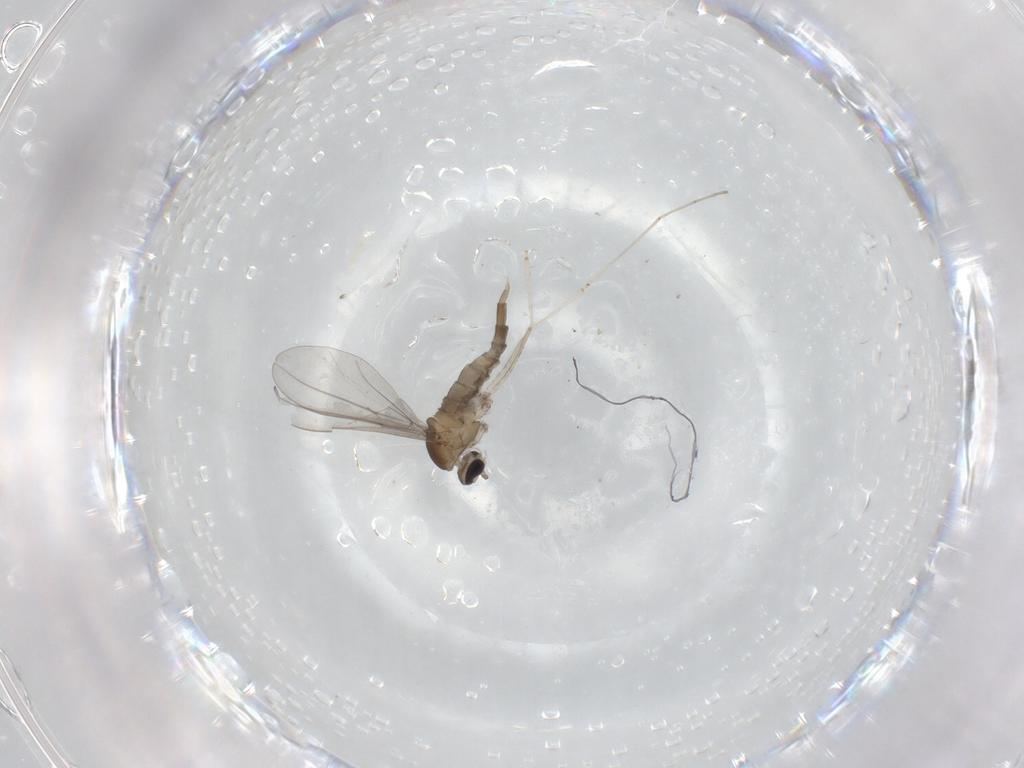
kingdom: Animalia
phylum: Arthropoda
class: Insecta
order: Diptera
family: Cecidomyiidae
